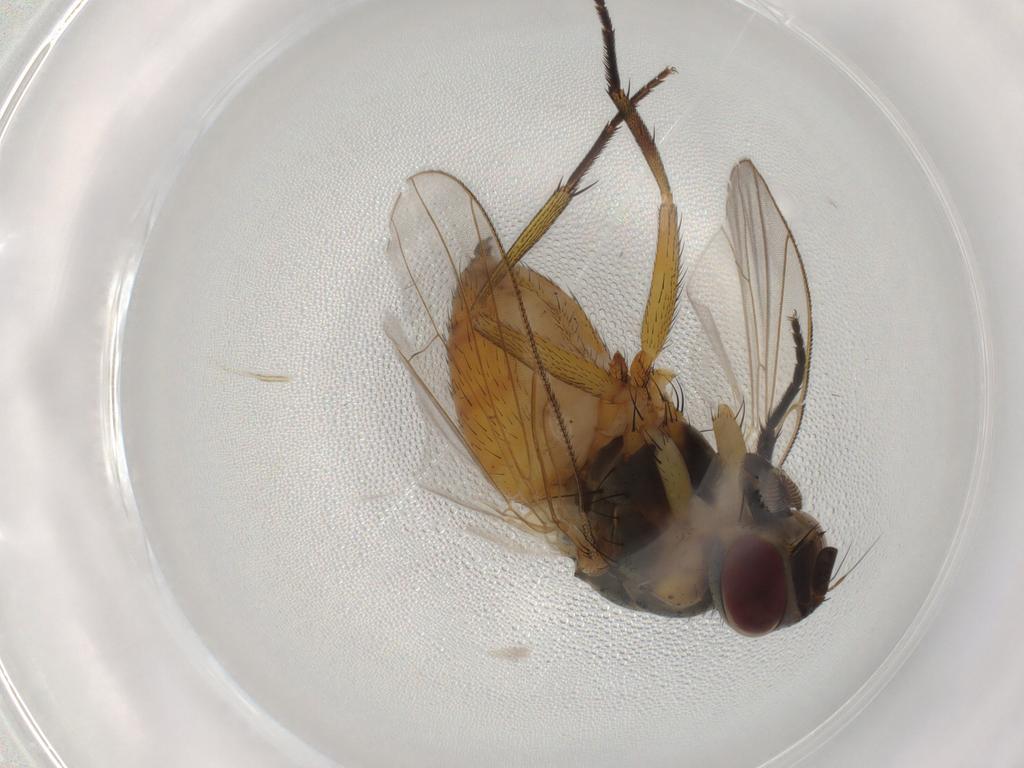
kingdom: Animalia
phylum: Arthropoda
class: Insecta
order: Diptera
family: Muscidae
